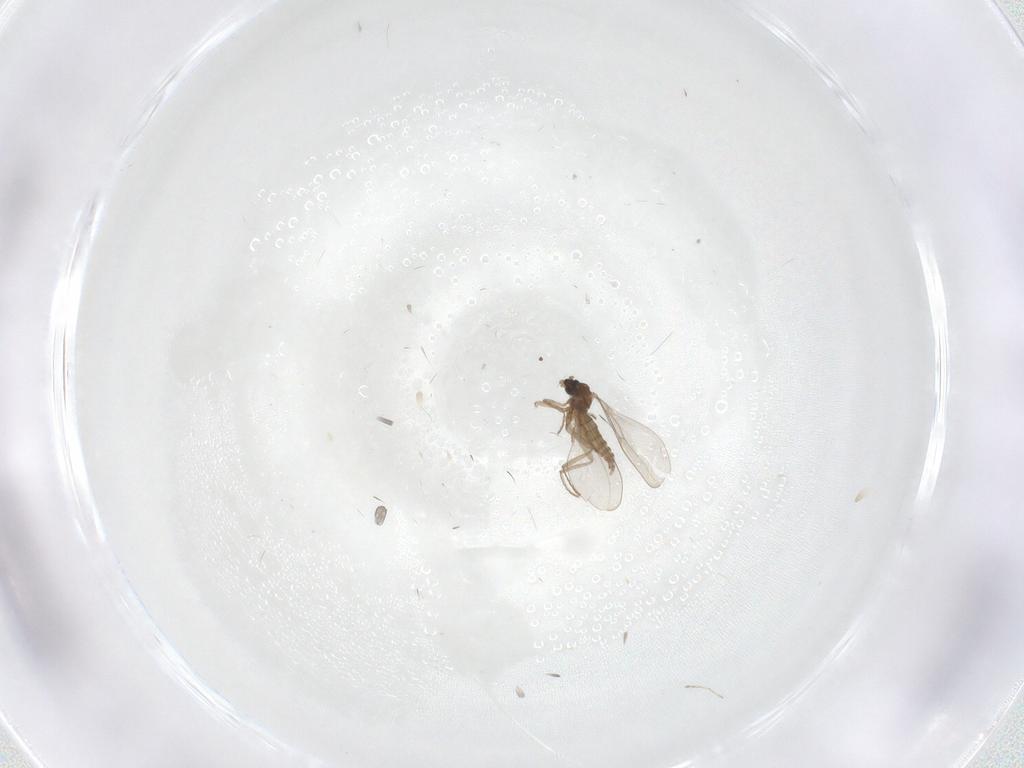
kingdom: Animalia
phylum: Arthropoda
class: Insecta
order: Diptera
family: Cecidomyiidae
